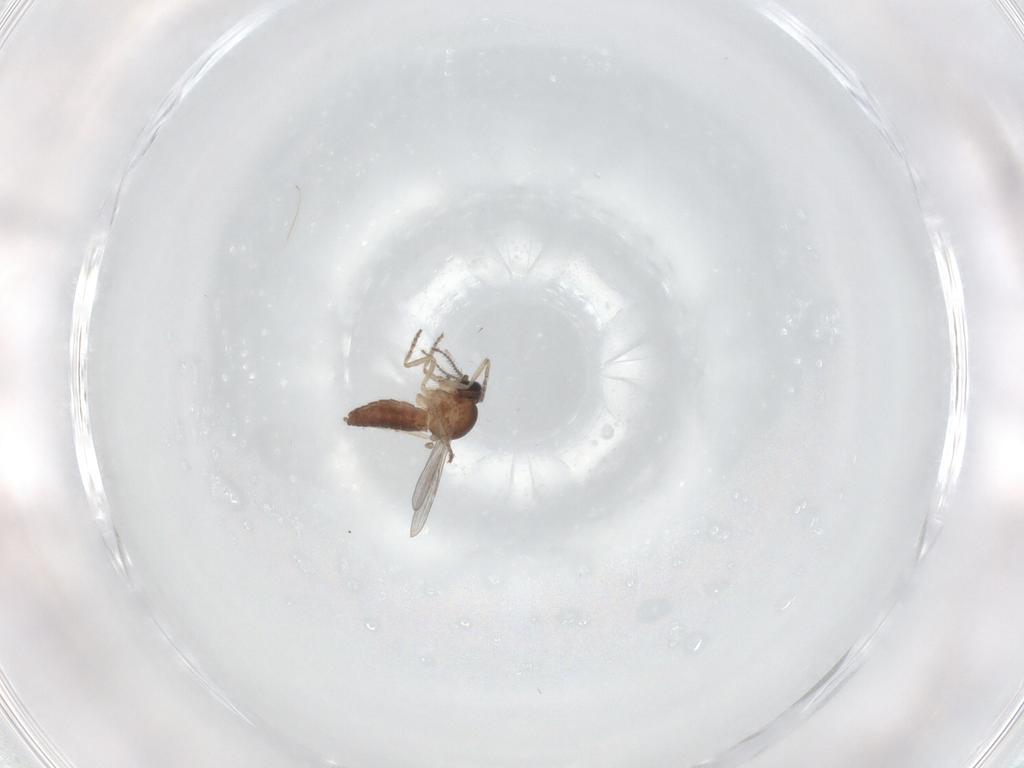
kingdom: Animalia
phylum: Arthropoda
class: Insecta
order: Diptera
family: Ceratopogonidae
